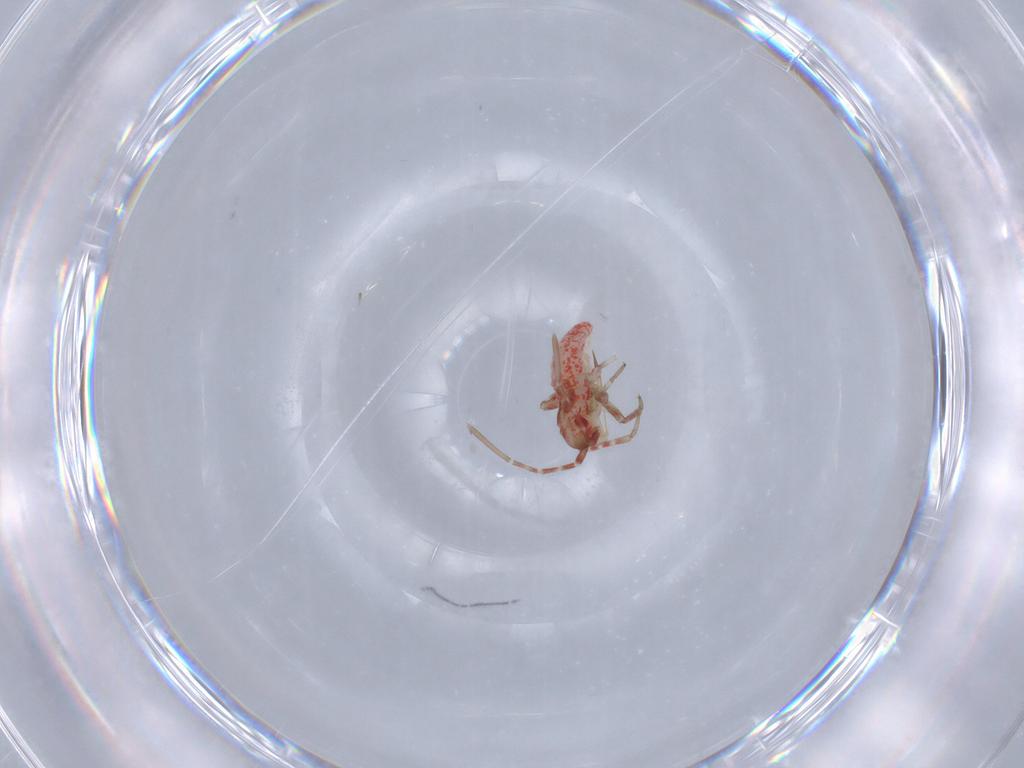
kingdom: Animalia
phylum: Arthropoda
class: Insecta
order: Hemiptera
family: Miridae
